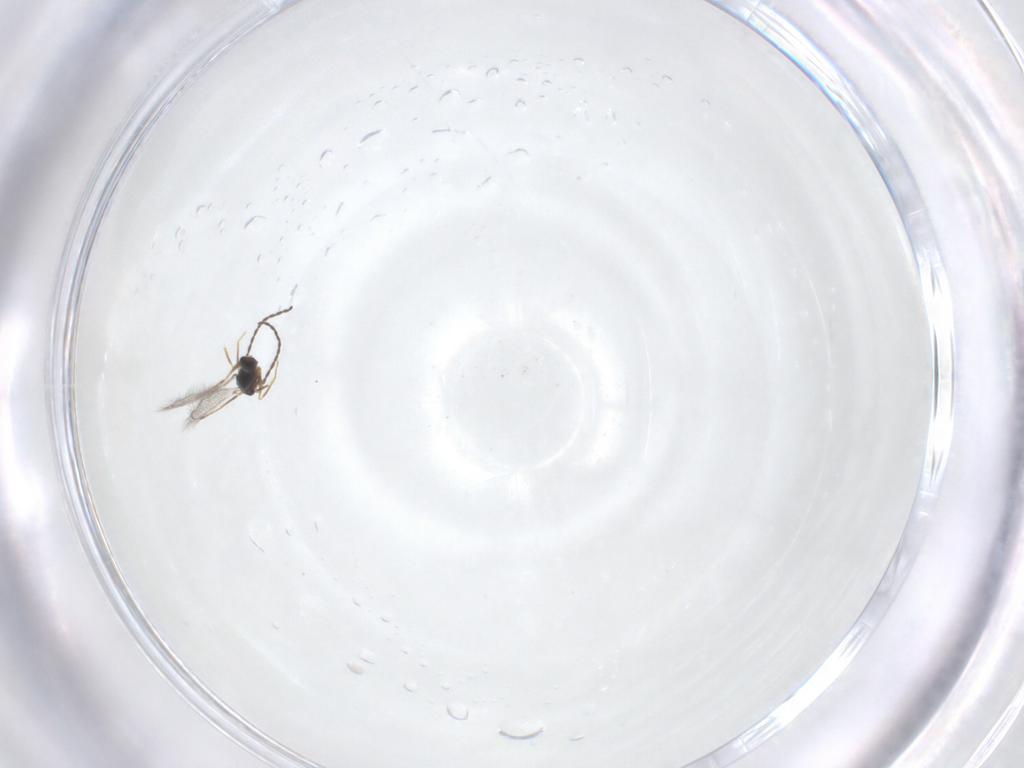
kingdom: Animalia
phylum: Arthropoda
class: Insecta
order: Hymenoptera
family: Mymaridae
